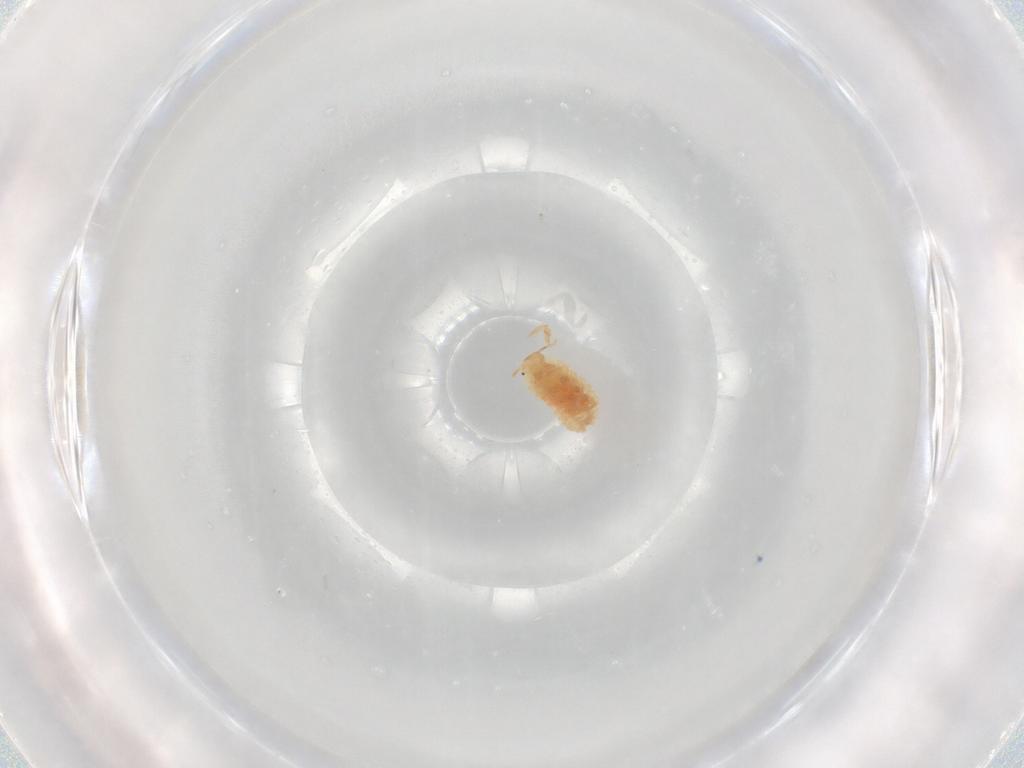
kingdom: Animalia
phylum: Arthropoda
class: Insecta
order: Hemiptera
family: Pseudococcidae
